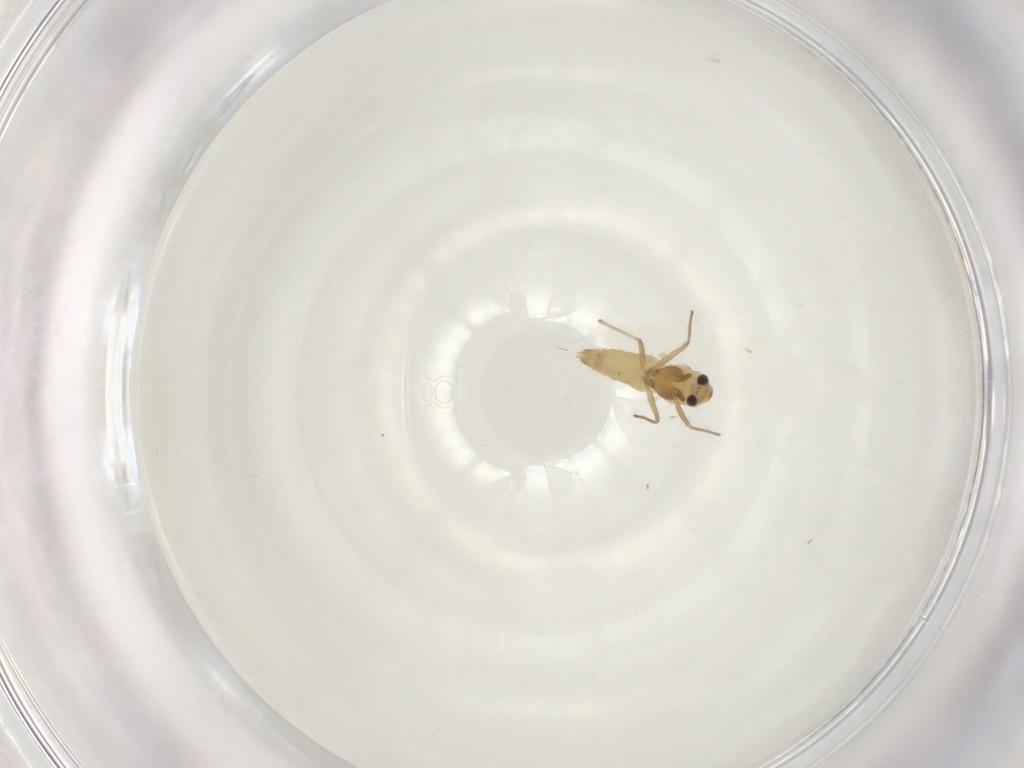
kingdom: Animalia
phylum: Arthropoda
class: Insecta
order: Diptera
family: Chironomidae
